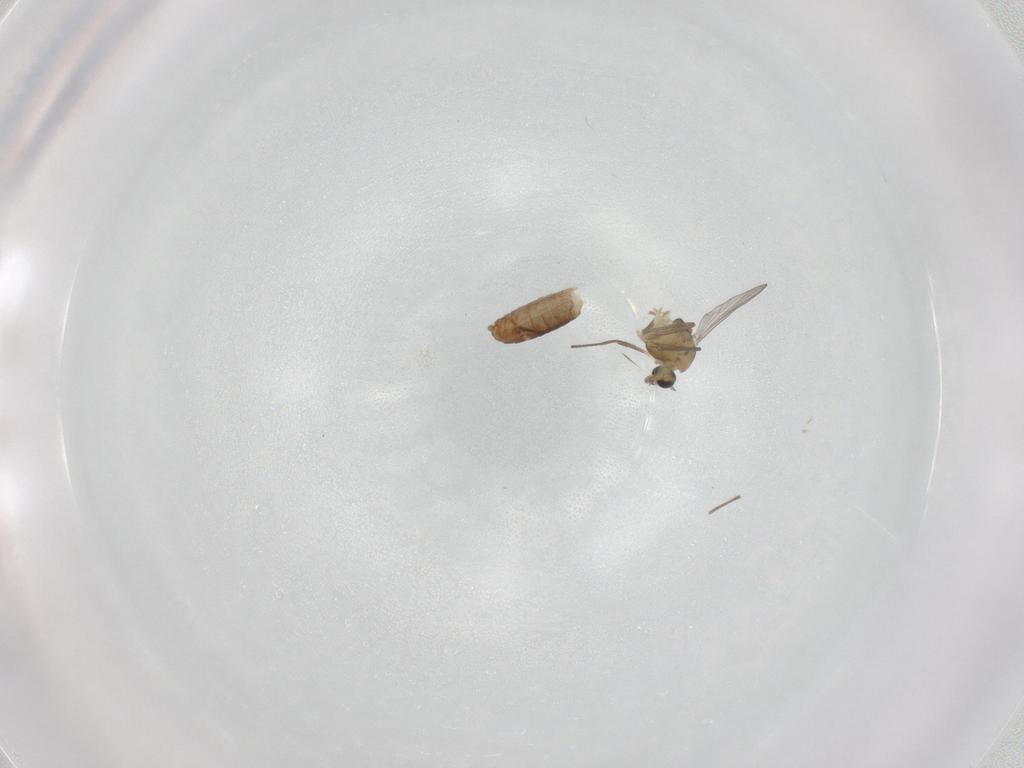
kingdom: Animalia
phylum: Arthropoda
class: Insecta
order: Diptera
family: Chironomidae
